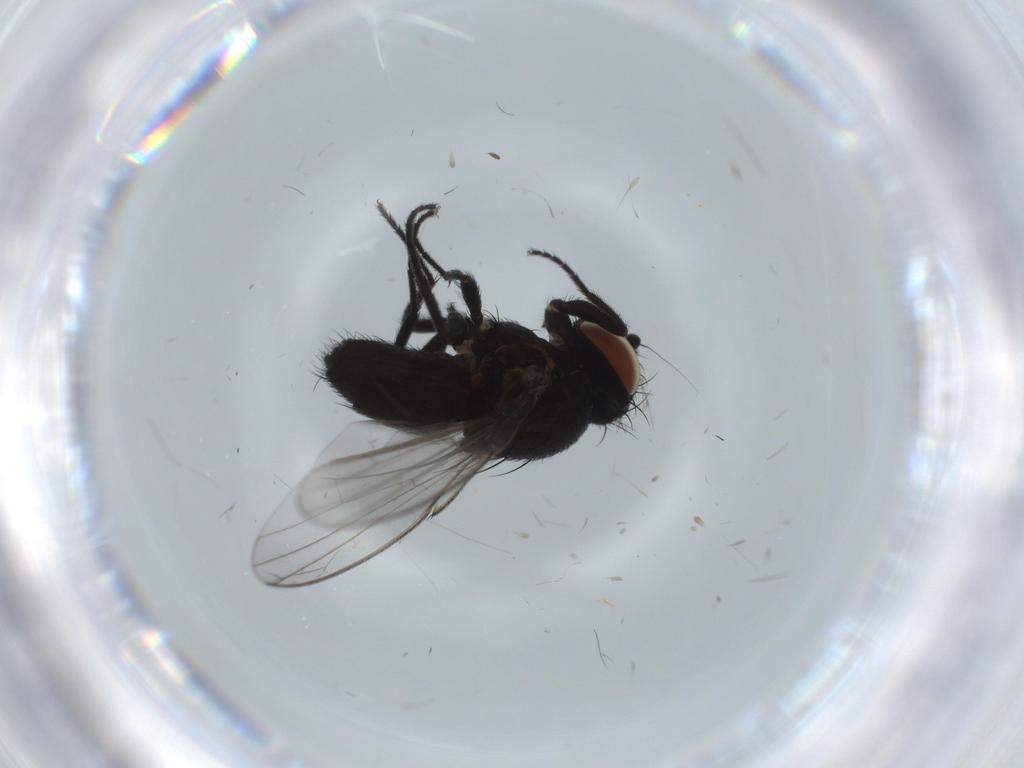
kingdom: Animalia
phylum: Arthropoda
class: Insecta
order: Diptera
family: Milichiidae
